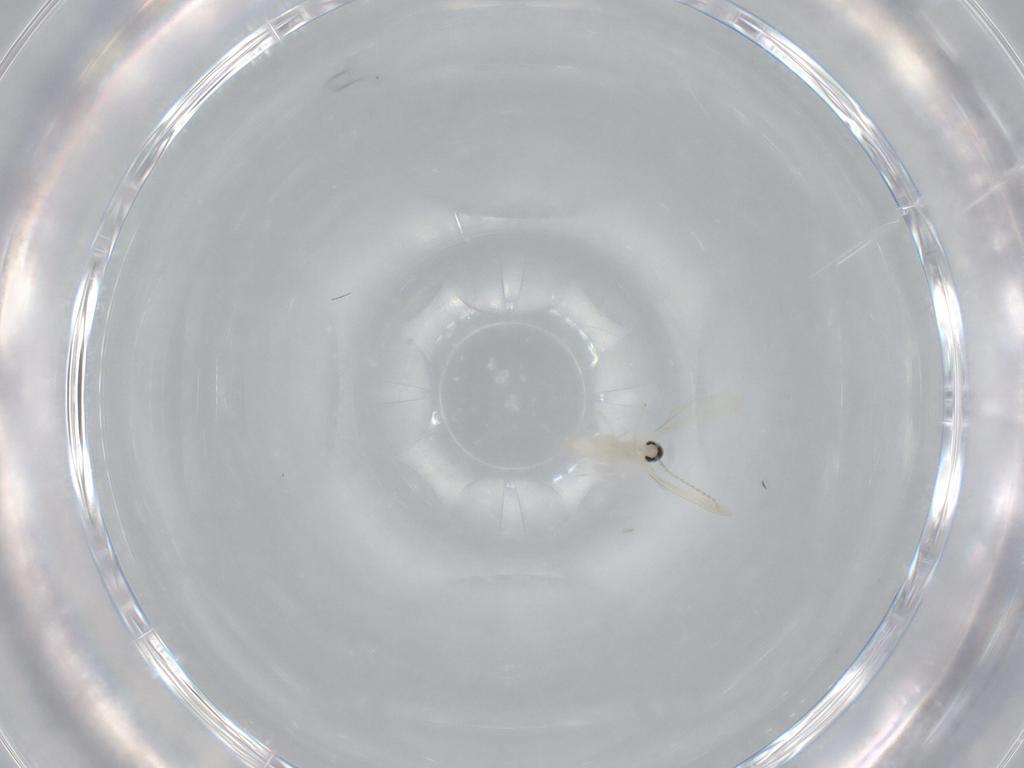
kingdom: Animalia
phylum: Arthropoda
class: Insecta
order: Diptera
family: Cecidomyiidae
